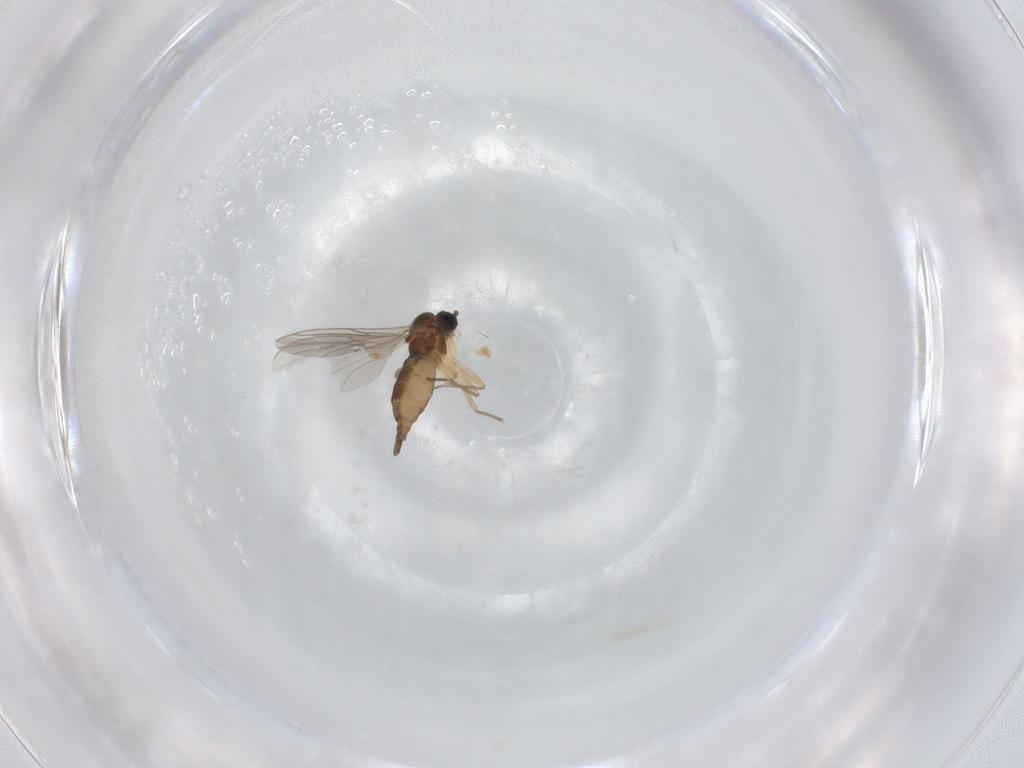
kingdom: Animalia
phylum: Arthropoda
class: Insecta
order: Diptera
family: Sciaridae
